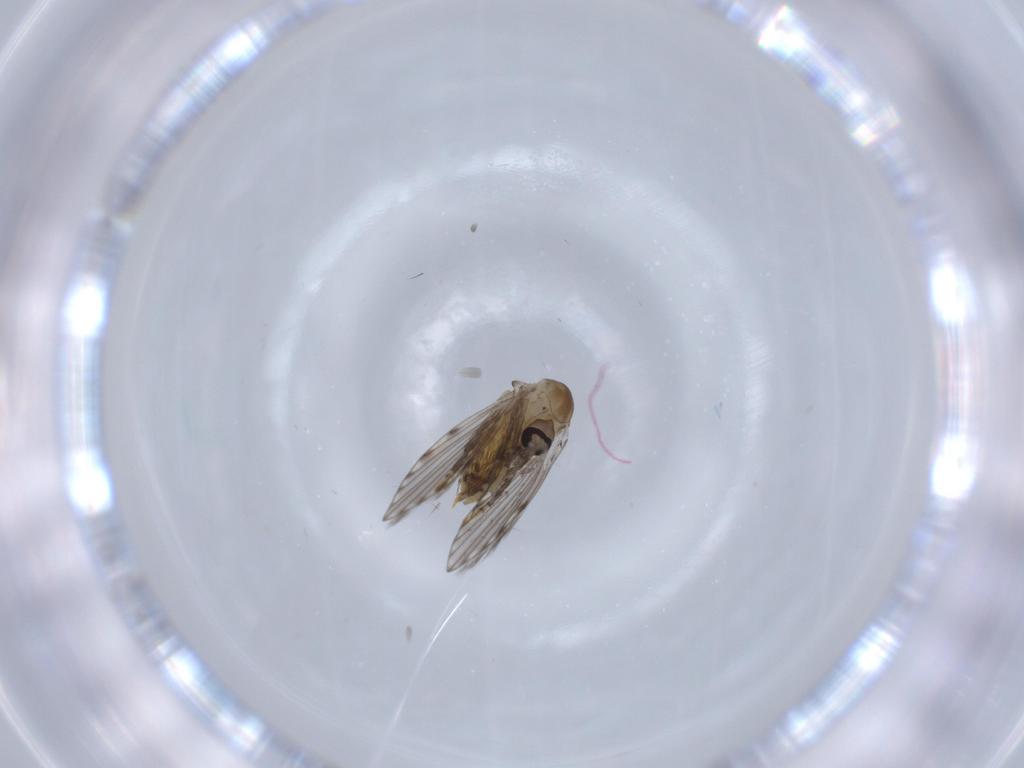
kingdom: Animalia
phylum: Arthropoda
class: Insecta
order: Diptera
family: Psychodidae
